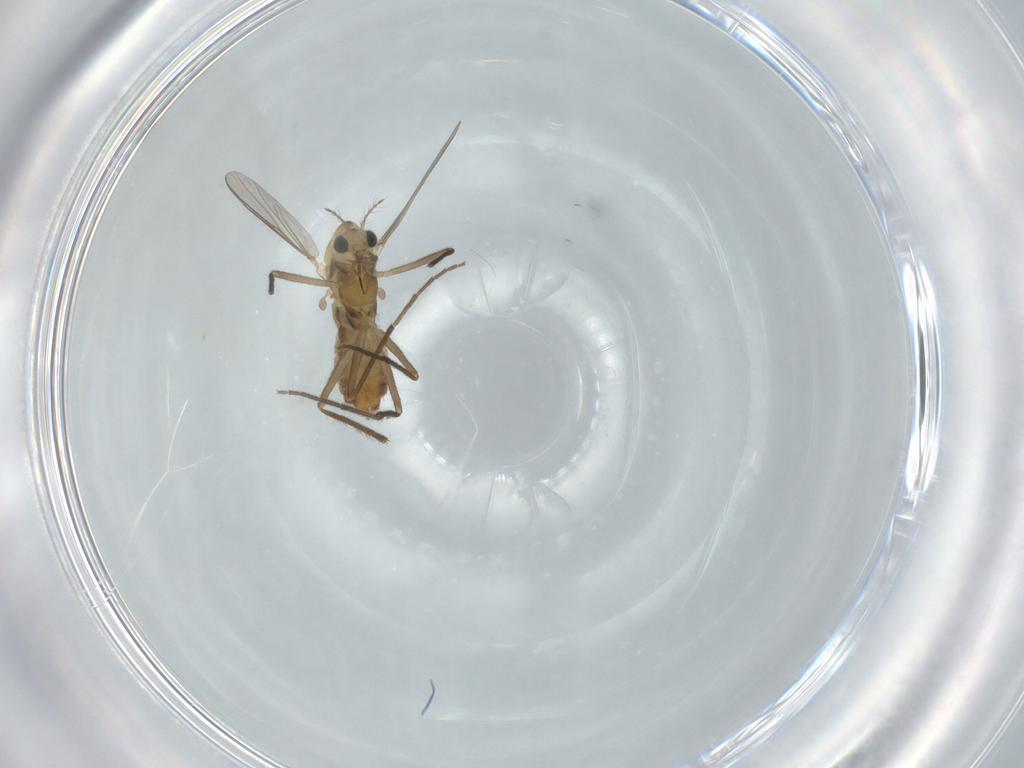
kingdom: Animalia
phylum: Arthropoda
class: Insecta
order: Diptera
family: Chironomidae
